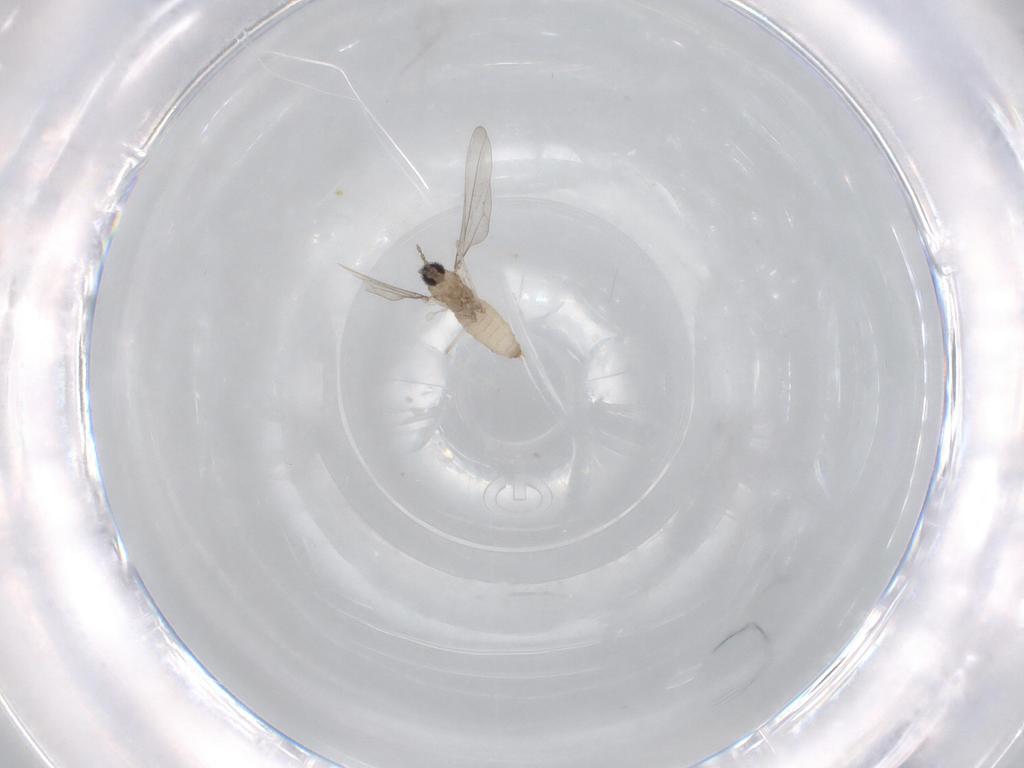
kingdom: Animalia
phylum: Arthropoda
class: Insecta
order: Diptera
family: Cecidomyiidae
